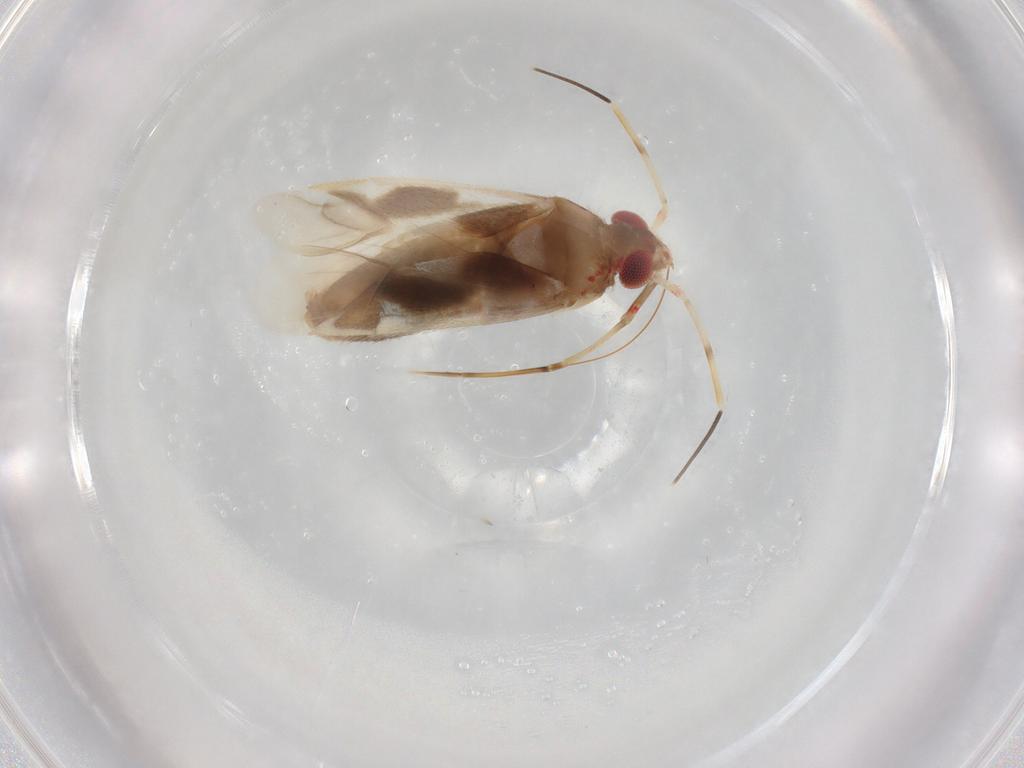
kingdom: Animalia
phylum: Arthropoda
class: Insecta
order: Hemiptera
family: Miridae
